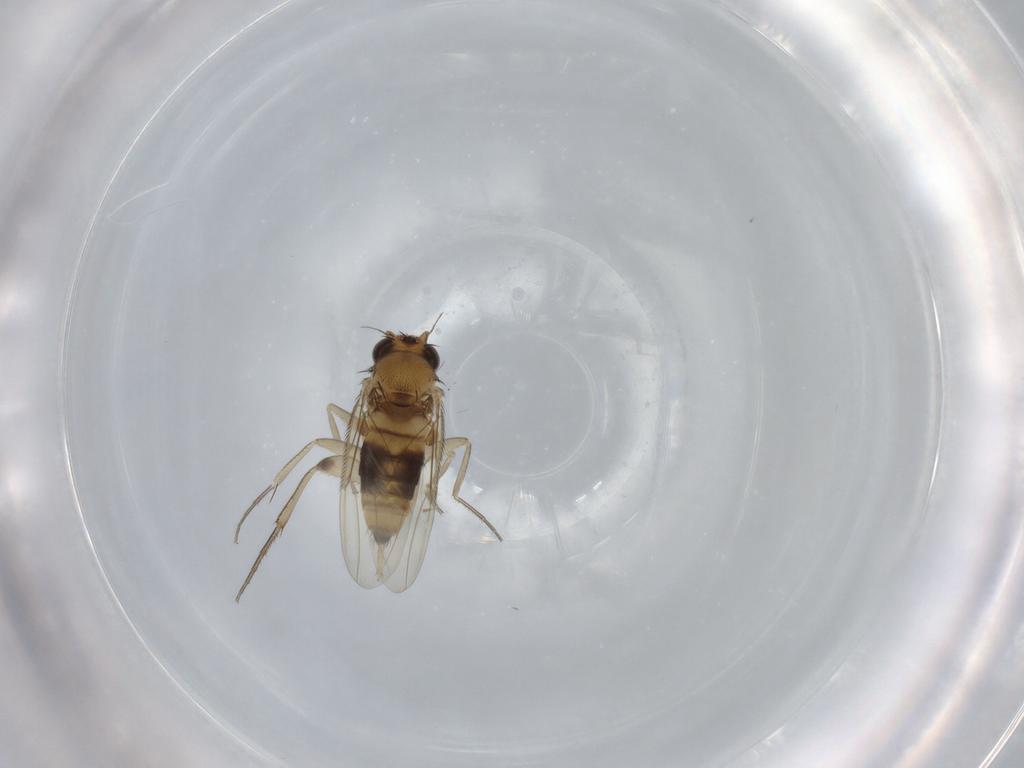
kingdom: Animalia
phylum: Arthropoda
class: Insecta
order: Diptera
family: Phoridae
